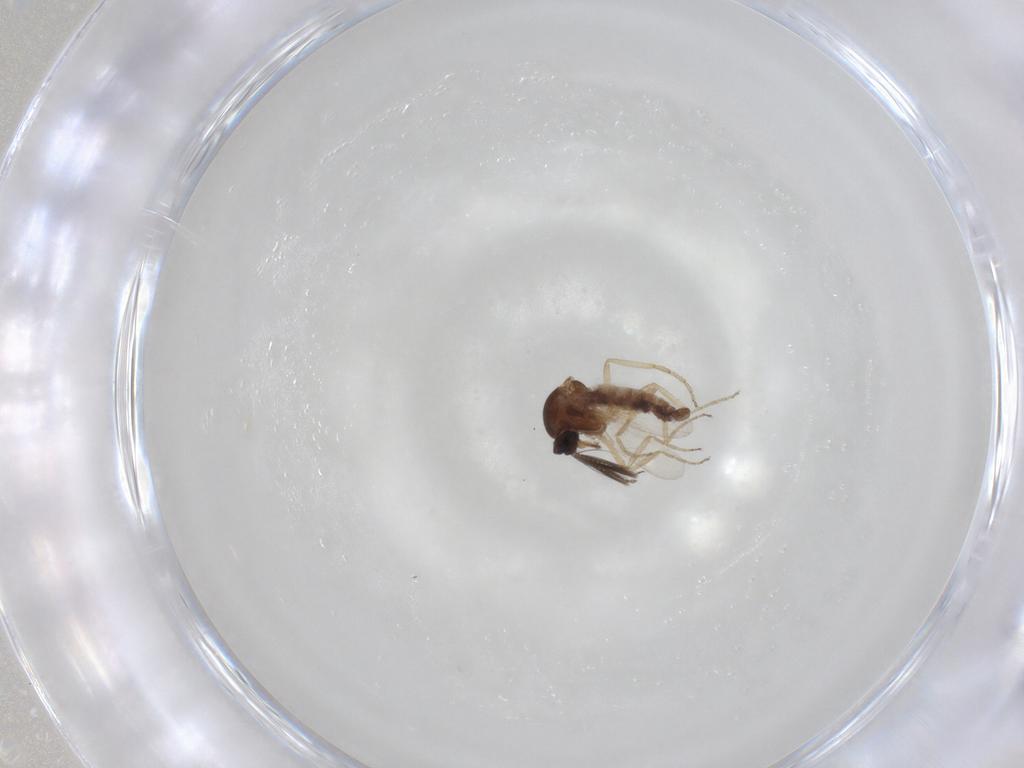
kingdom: Animalia
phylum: Arthropoda
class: Insecta
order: Diptera
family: Ceratopogonidae
